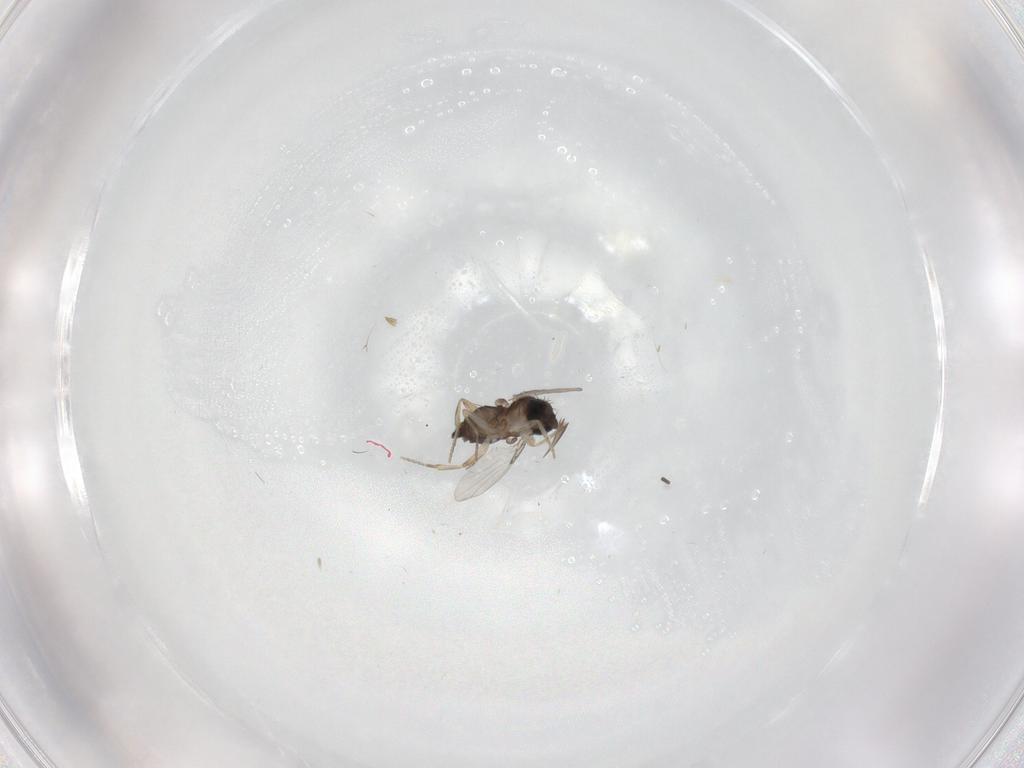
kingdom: Animalia
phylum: Arthropoda
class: Insecta
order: Diptera
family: Phoridae
